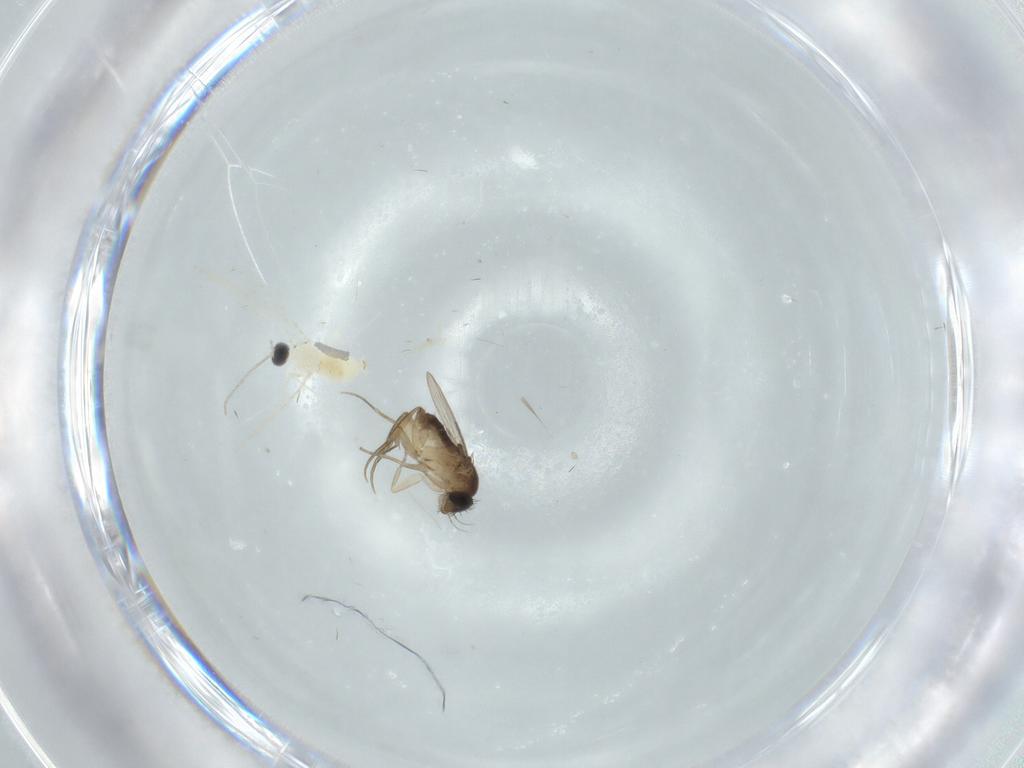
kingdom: Animalia
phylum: Arthropoda
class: Insecta
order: Diptera
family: Cecidomyiidae
